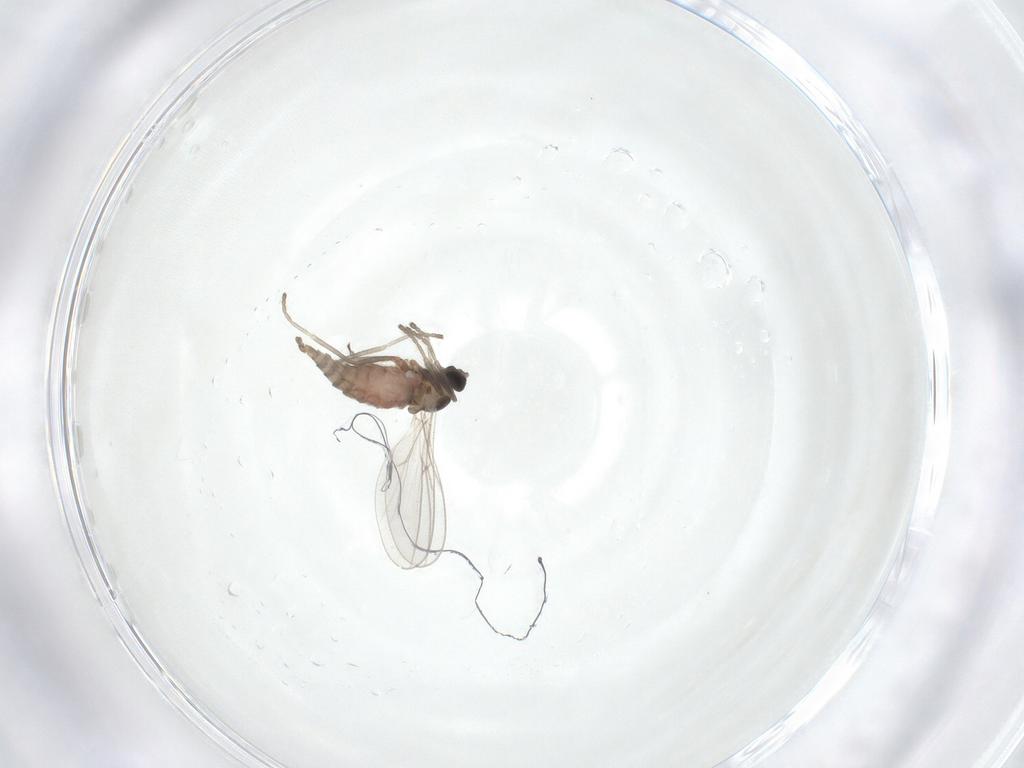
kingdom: Animalia
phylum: Arthropoda
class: Insecta
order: Diptera
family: Cecidomyiidae
